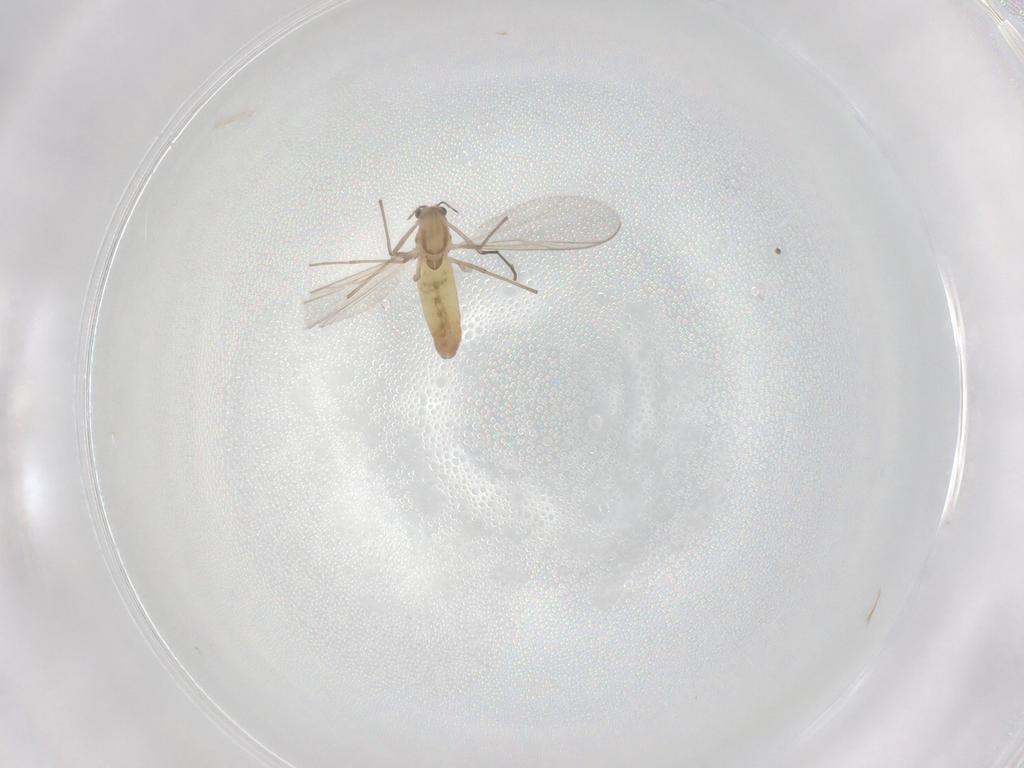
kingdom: Animalia
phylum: Arthropoda
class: Insecta
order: Diptera
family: Chironomidae
